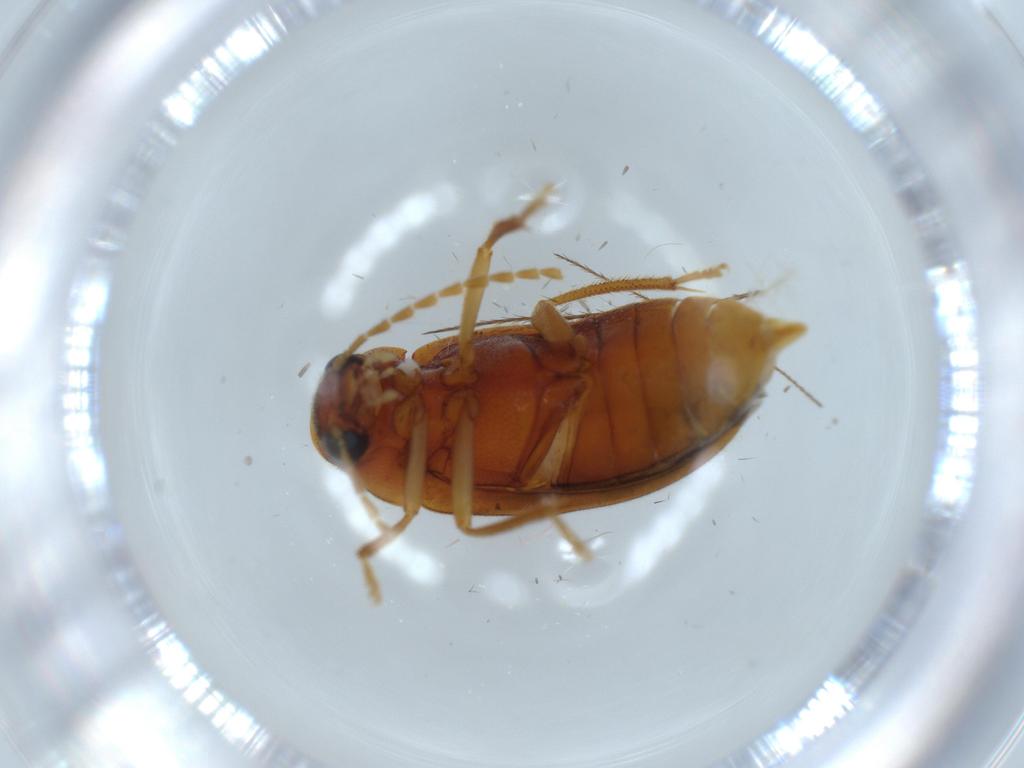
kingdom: Animalia
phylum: Arthropoda
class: Insecta
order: Coleoptera
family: Ptilodactylidae
